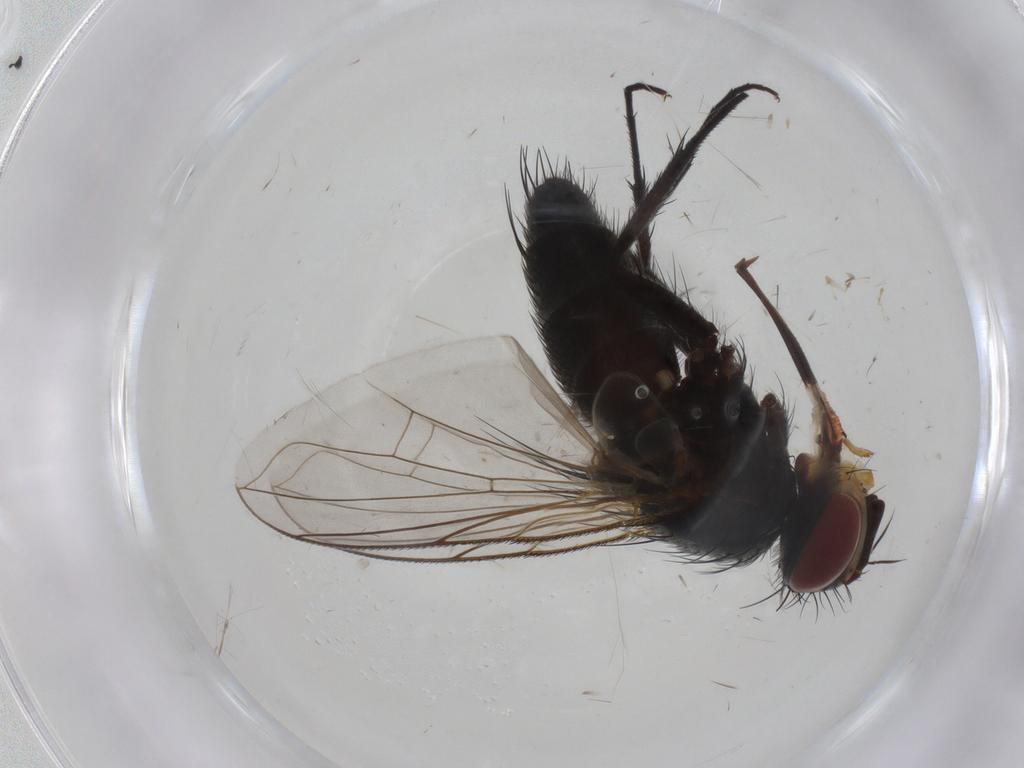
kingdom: Animalia
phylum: Arthropoda
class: Insecta
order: Diptera
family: Tachinidae
